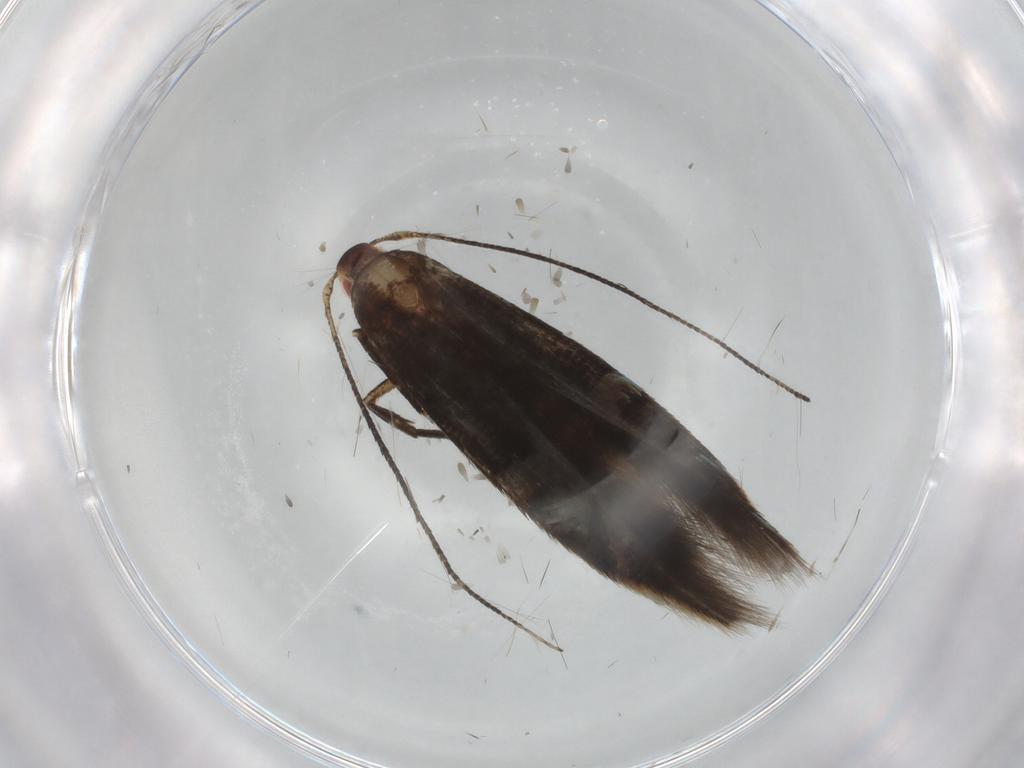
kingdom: Animalia
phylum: Arthropoda
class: Insecta
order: Lepidoptera
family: Cosmopterigidae
